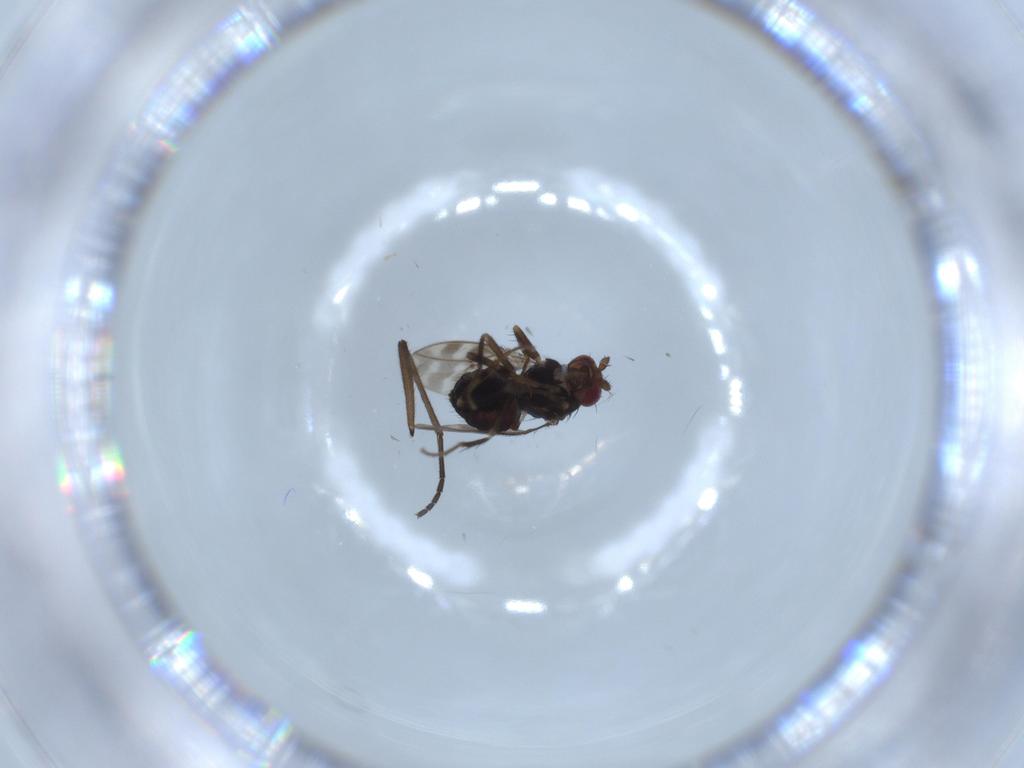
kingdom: Animalia
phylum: Arthropoda
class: Insecta
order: Diptera
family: Sphaeroceridae
